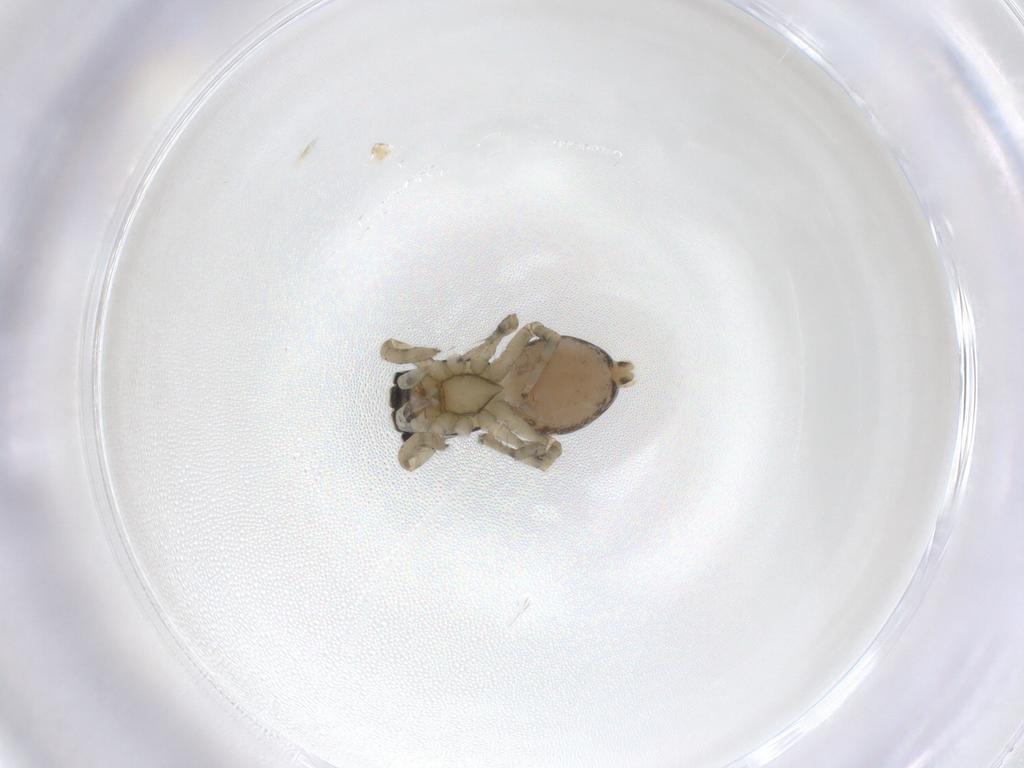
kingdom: Animalia
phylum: Arthropoda
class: Arachnida
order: Araneae
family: Salticidae
